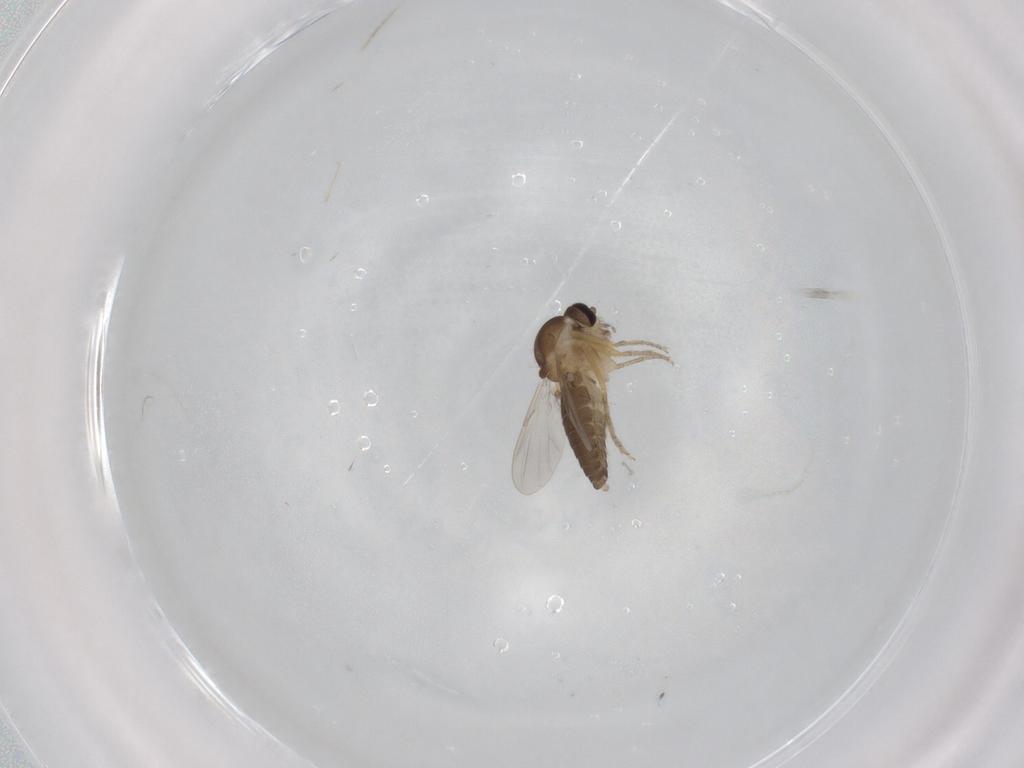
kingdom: Animalia
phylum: Arthropoda
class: Insecta
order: Diptera
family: Ceratopogonidae
